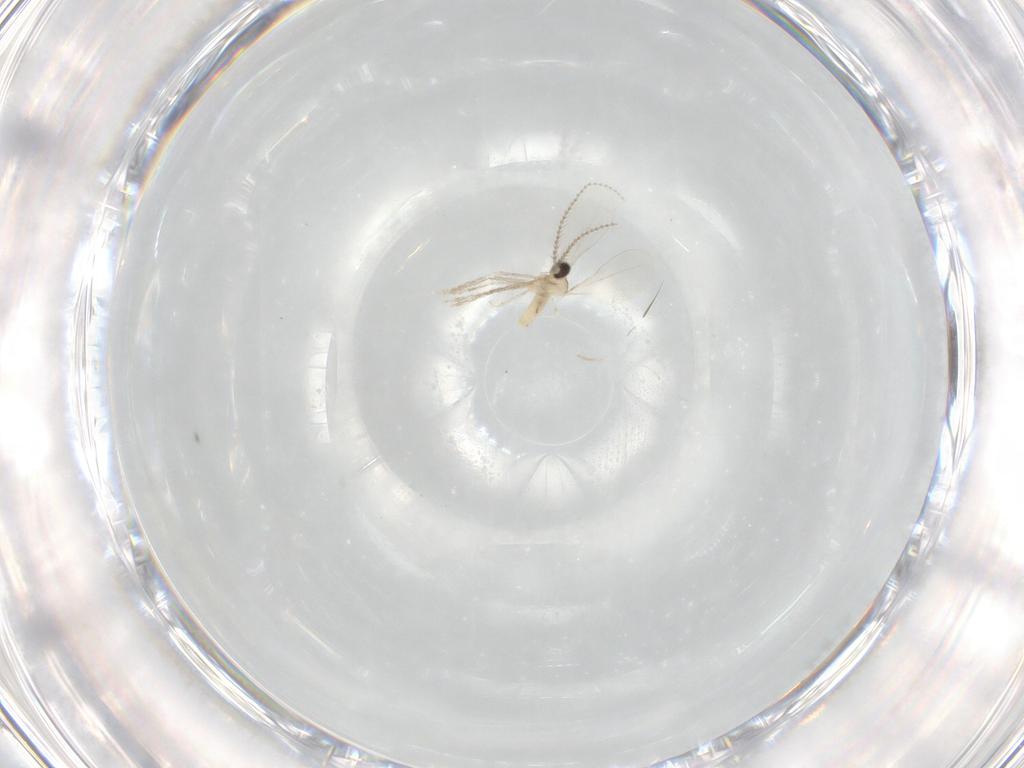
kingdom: Animalia
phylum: Arthropoda
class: Insecta
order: Diptera
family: Cecidomyiidae
